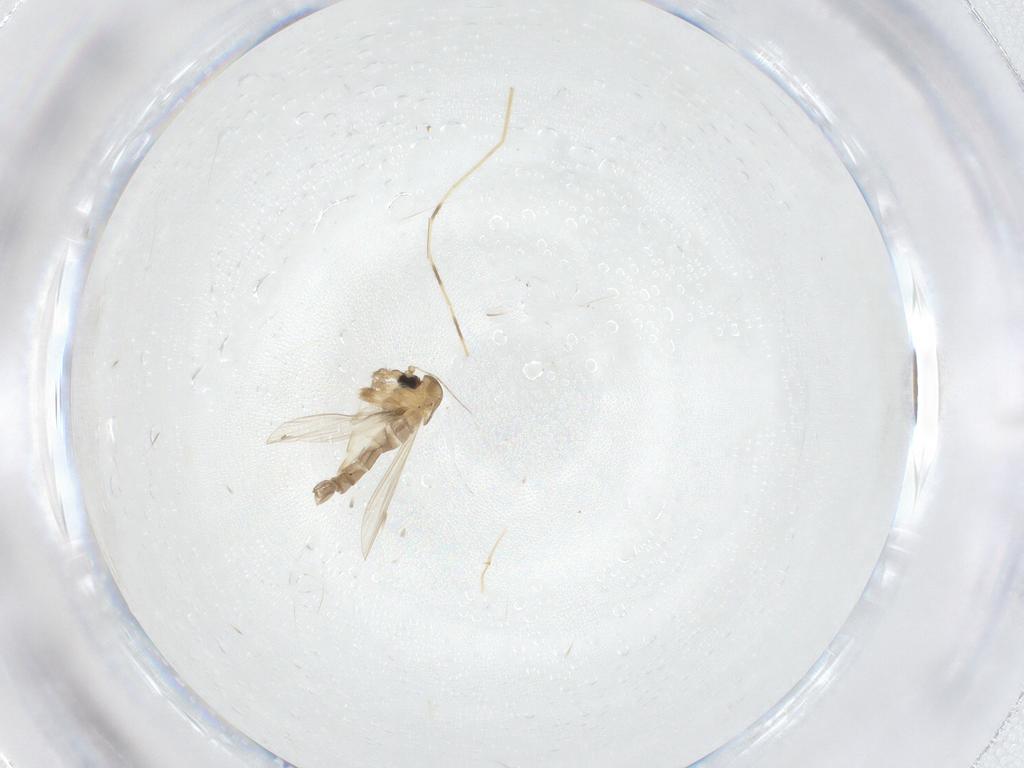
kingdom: Animalia
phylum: Arthropoda
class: Insecta
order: Diptera
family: Psychodidae
